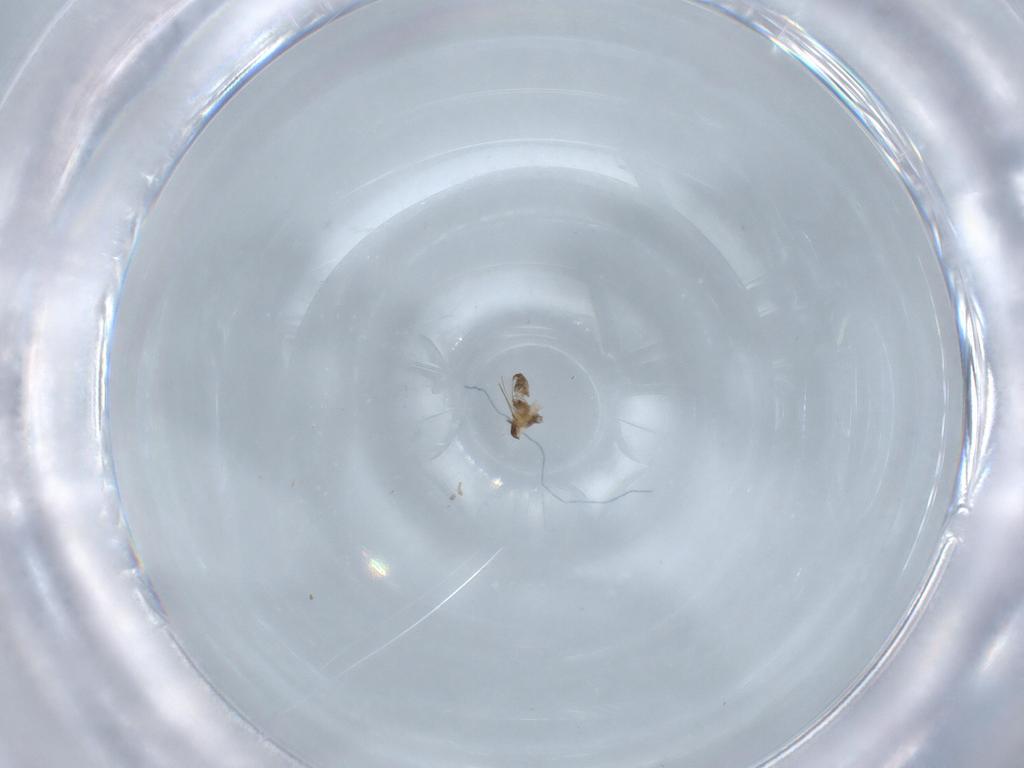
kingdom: Animalia
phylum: Arthropoda
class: Insecta
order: Diptera
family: Cecidomyiidae
